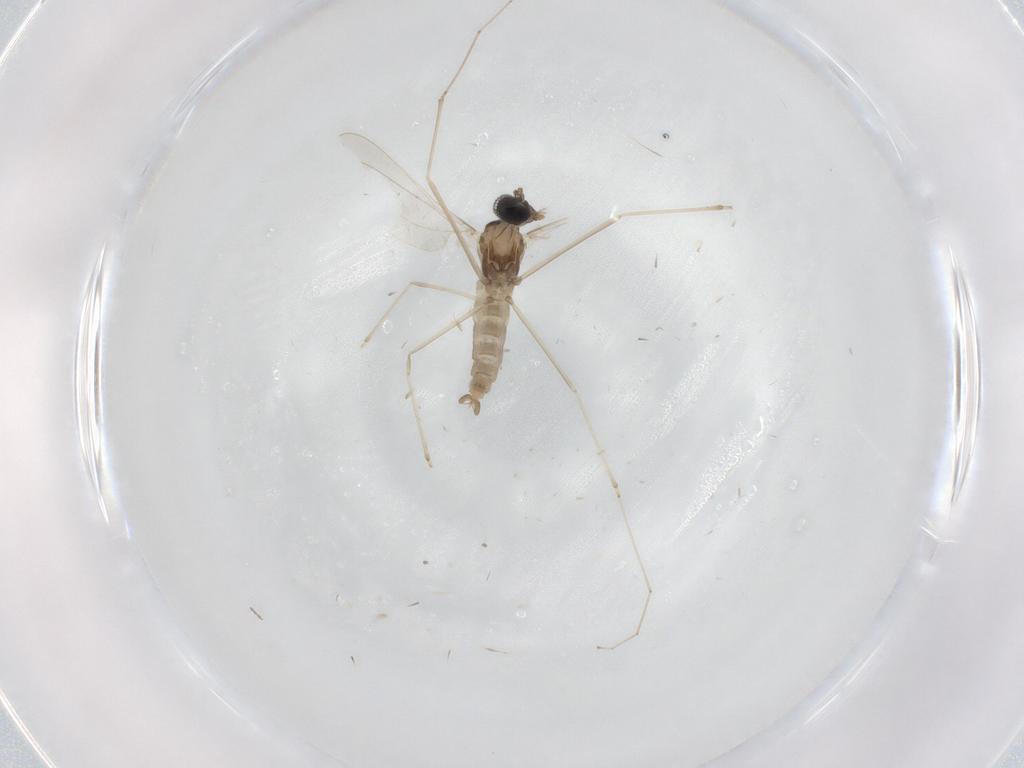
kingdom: Animalia
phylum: Arthropoda
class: Insecta
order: Diptera
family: Cecidomyiidae
